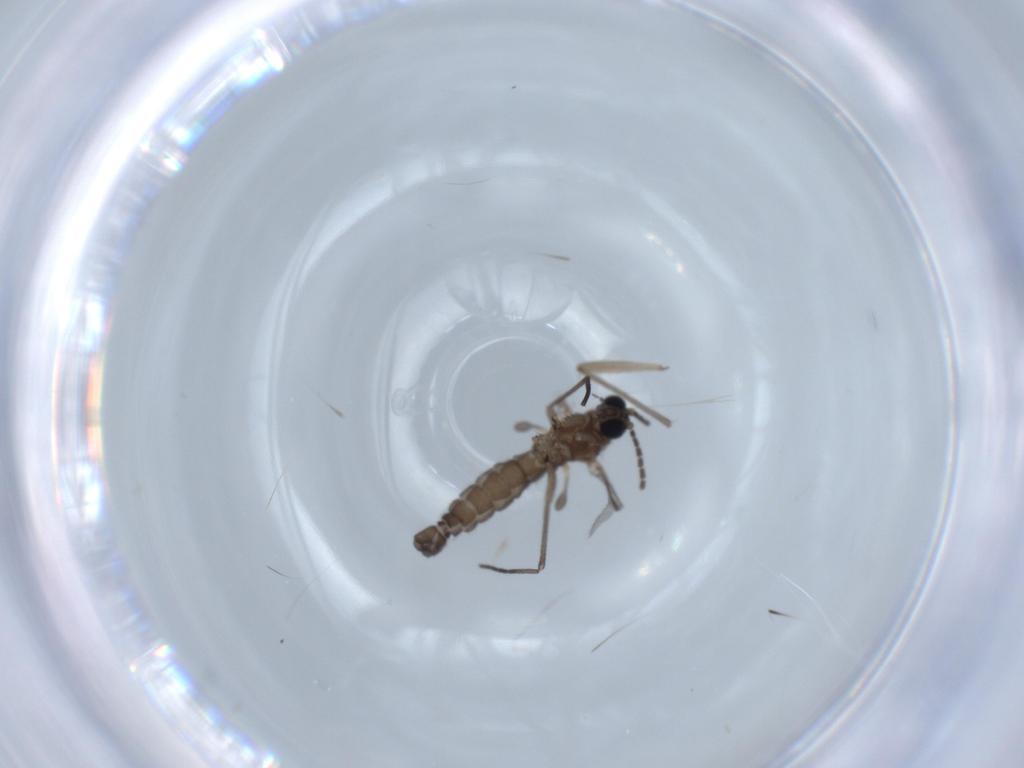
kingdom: Animalia
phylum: Arthropoda
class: Insecta
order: Diptera
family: Sciaridae
